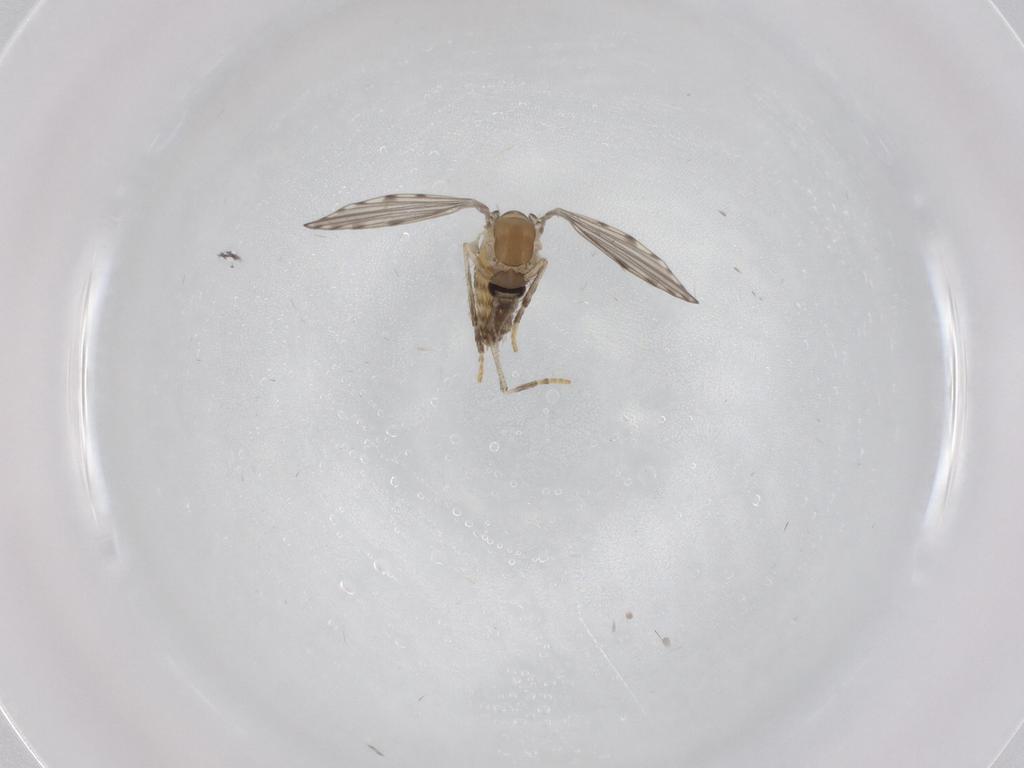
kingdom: Animalia
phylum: Arthropoda
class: Insecta
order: Diptera
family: Psychodidae
